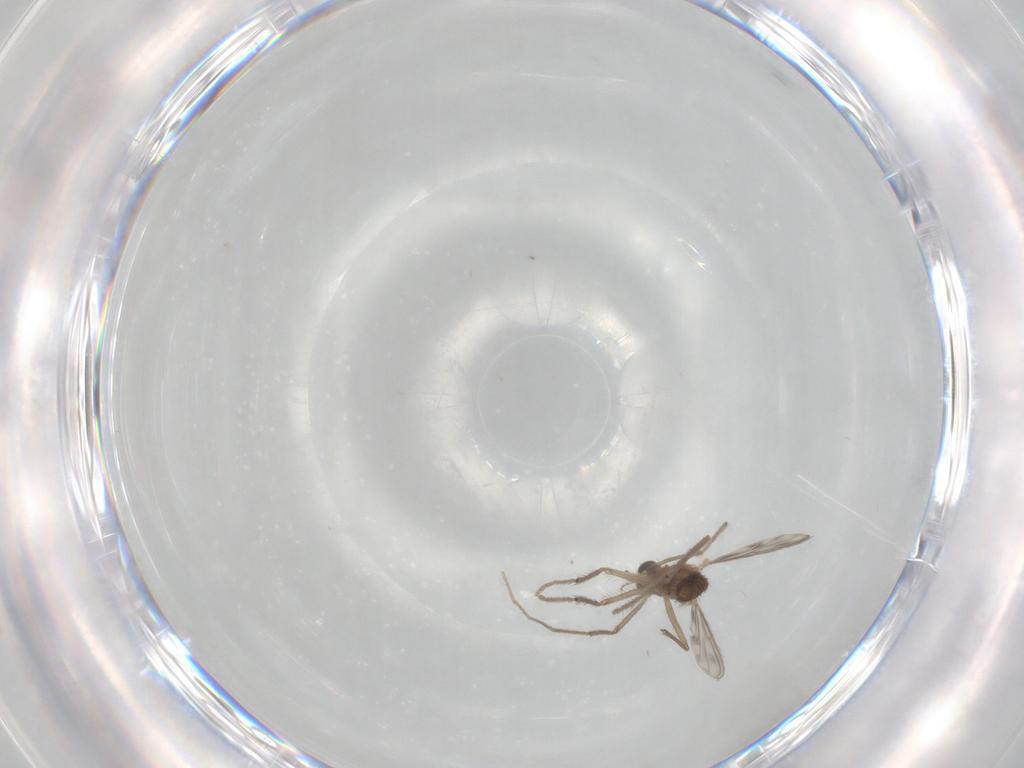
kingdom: Animalia
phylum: Arthropoda
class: Insecta
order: Diptera
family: Chironomidae
